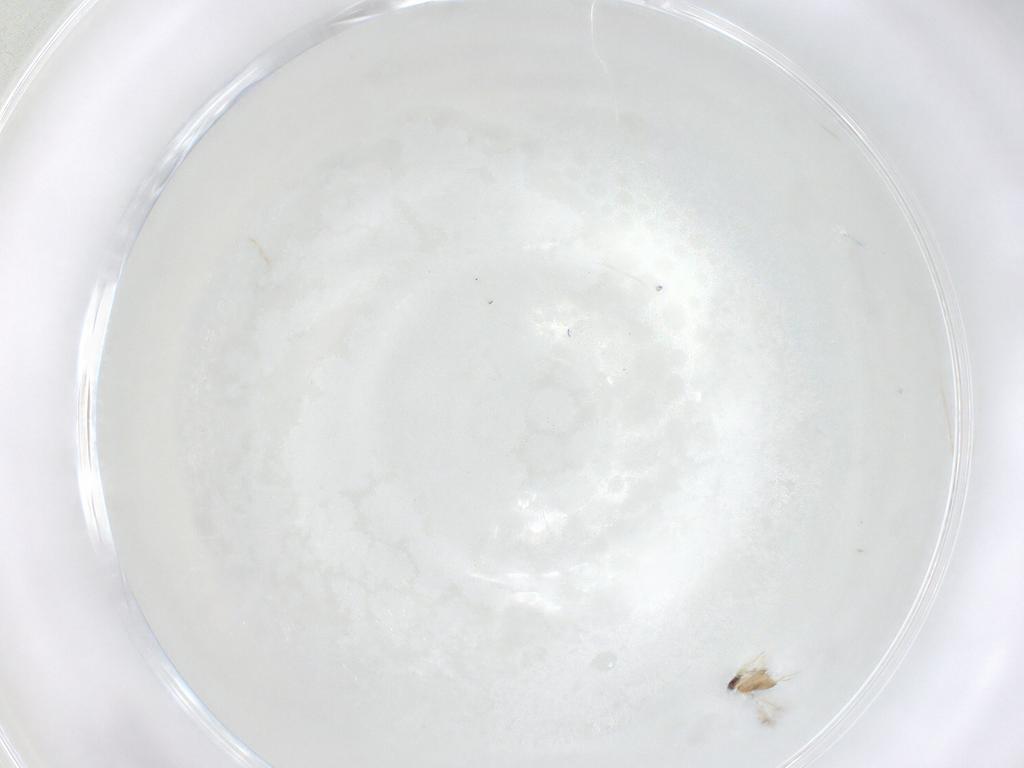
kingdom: Animalia
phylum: Arthropoda
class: Insecta
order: Hymenoptera
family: Mymaridae
